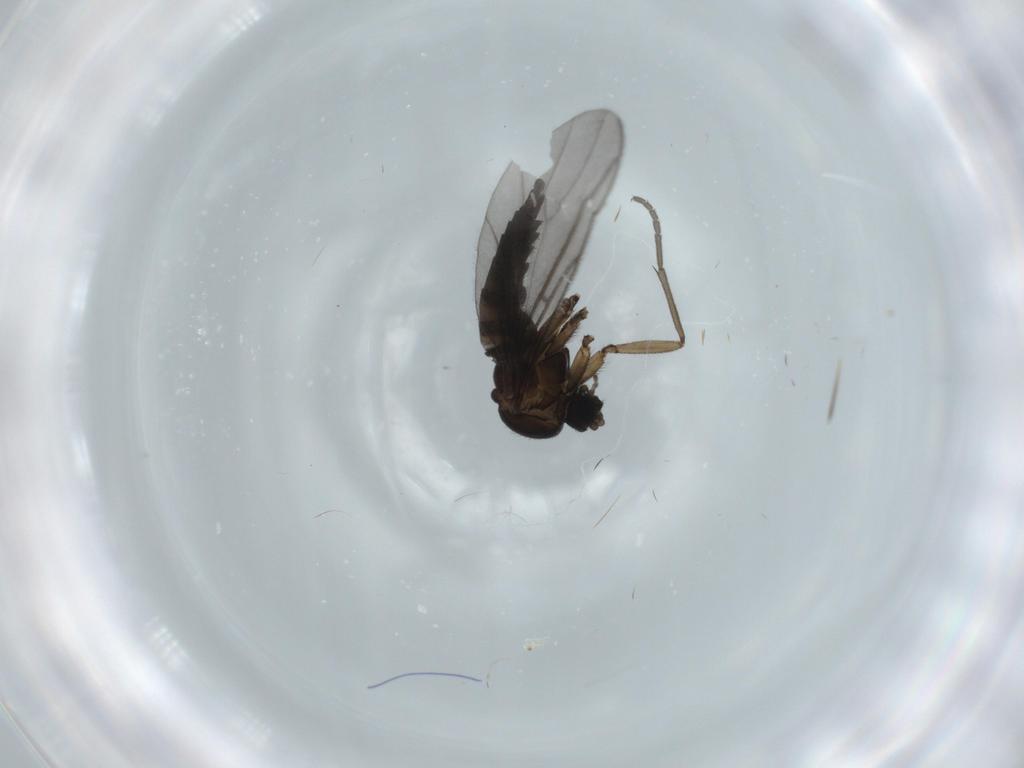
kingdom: Animalia
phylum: Arthropoda
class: Insecta
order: Diptera
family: Sciaridae
